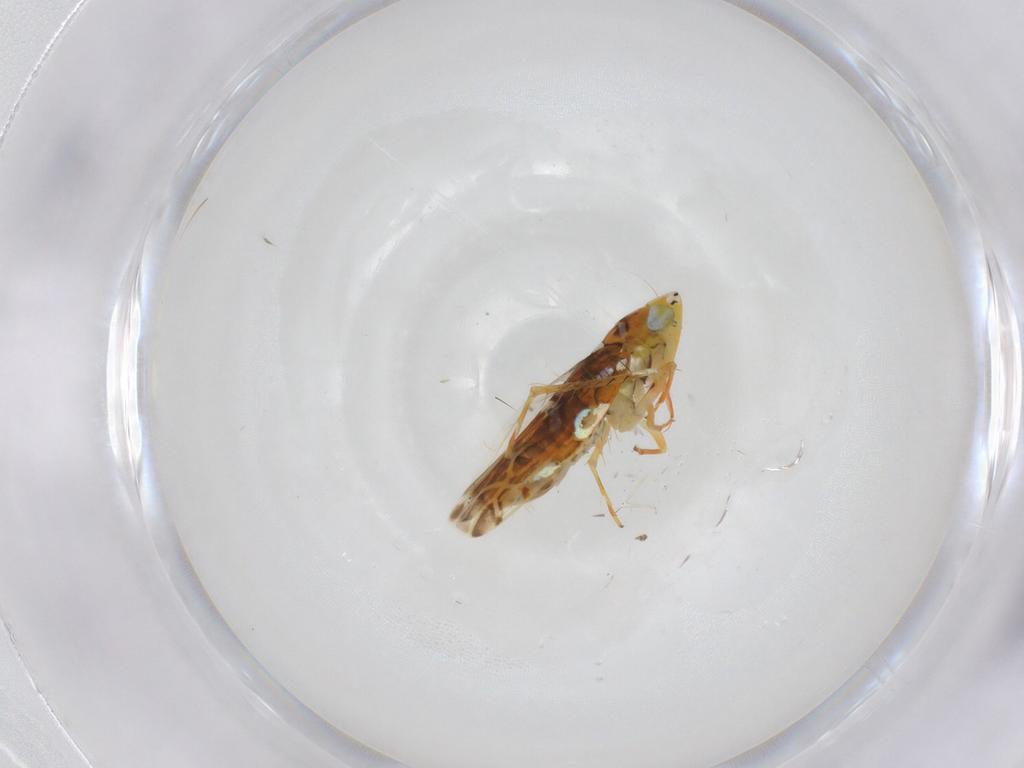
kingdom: Animalia
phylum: Arthropoda
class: Insecta
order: Hemiptera
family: Cicadellidae
